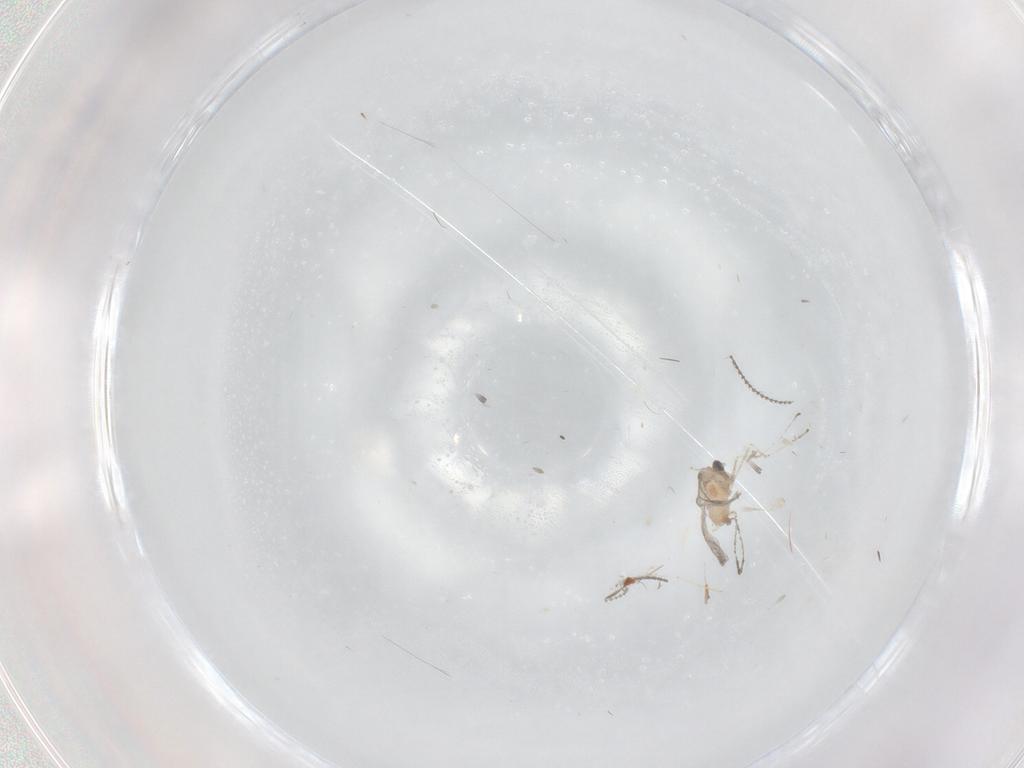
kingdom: Animalia
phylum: Arthropoda
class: Insecta
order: Diptera
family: Cecidomyiidae
